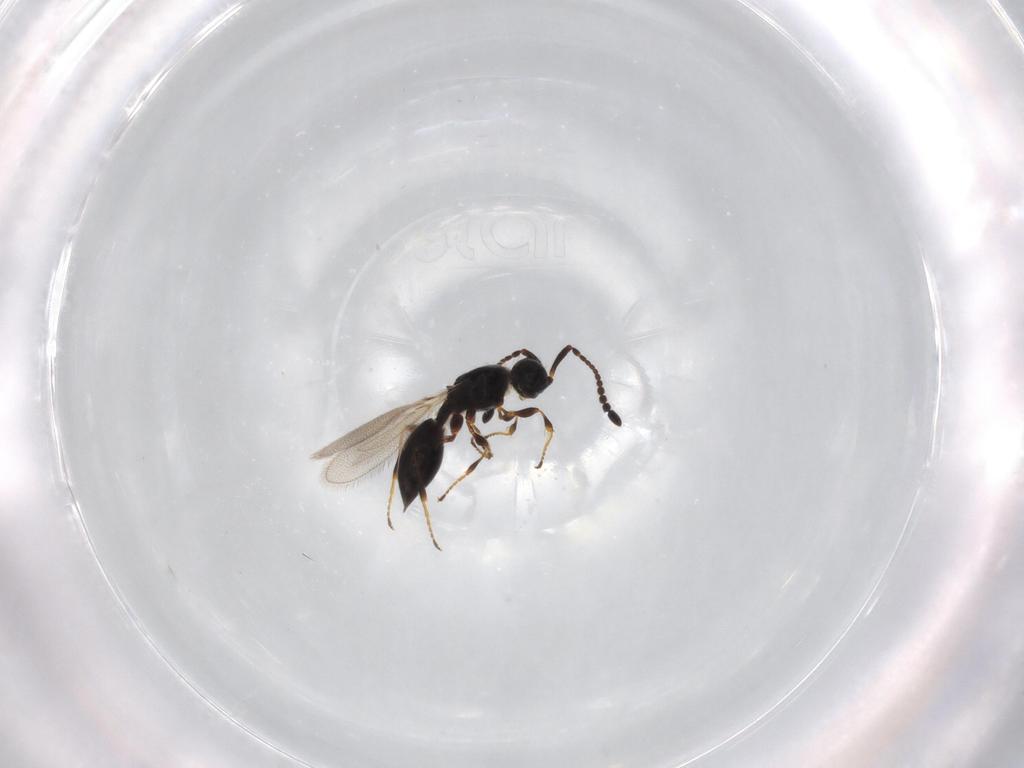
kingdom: Animalia
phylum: Arthropoda
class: Insecta
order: Hymenoptera
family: Diapriidae
